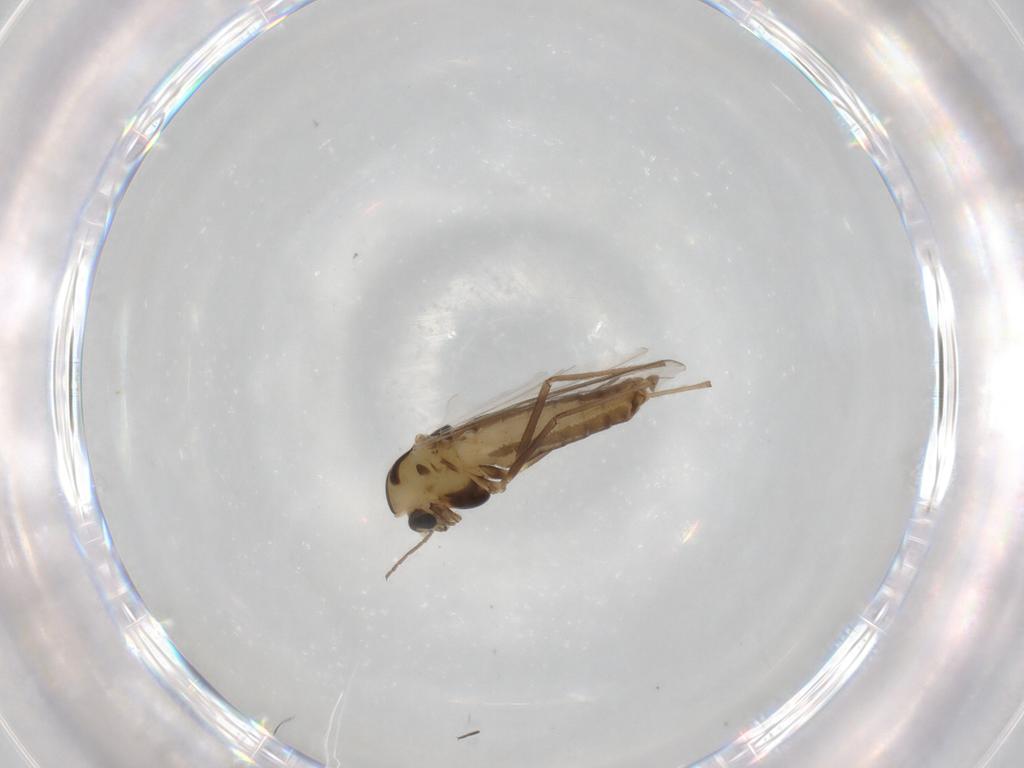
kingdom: Animalia
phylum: Arthropoda
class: Insecta
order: Diptera
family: Chironomidae
